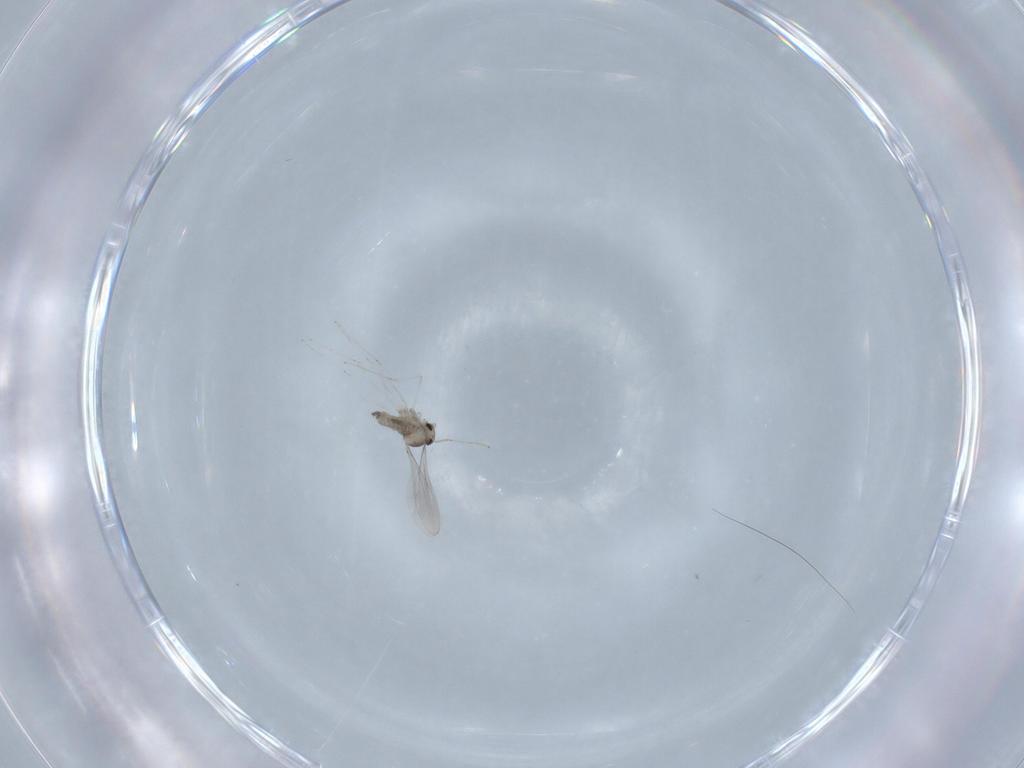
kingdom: Animalia
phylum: Arthropoda
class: Insecta
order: Diptera
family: Cecidomyiidae
